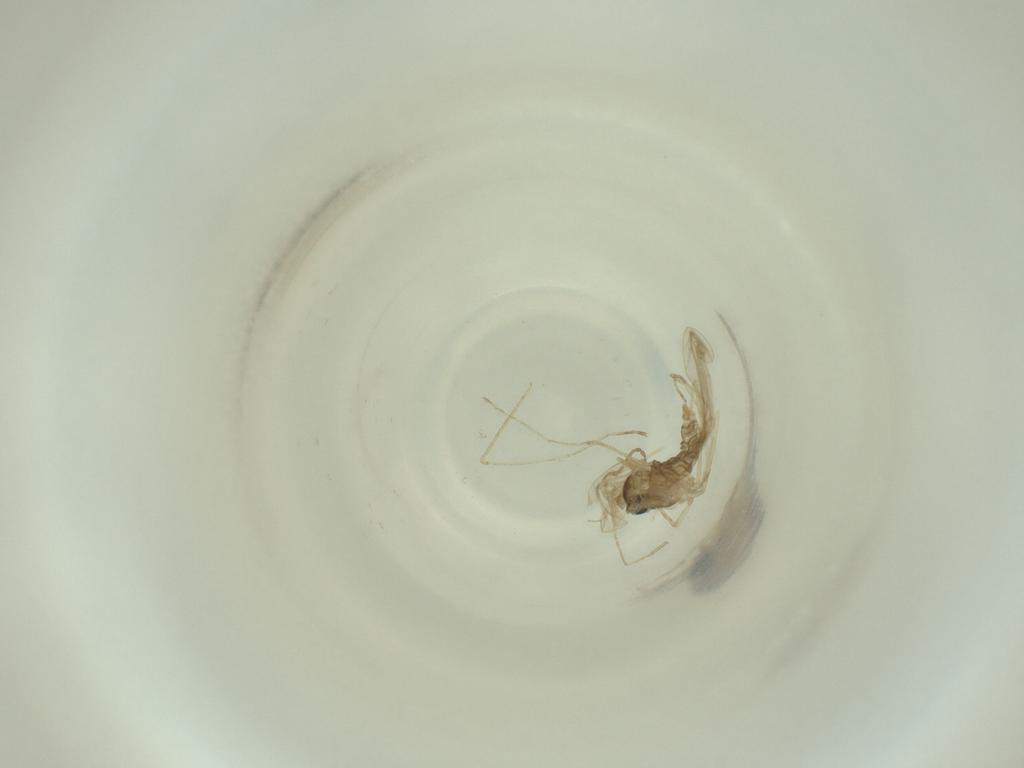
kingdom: Animalia
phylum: Arthropoda
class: Insecta
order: Diptera
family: Cecidomyiidae
